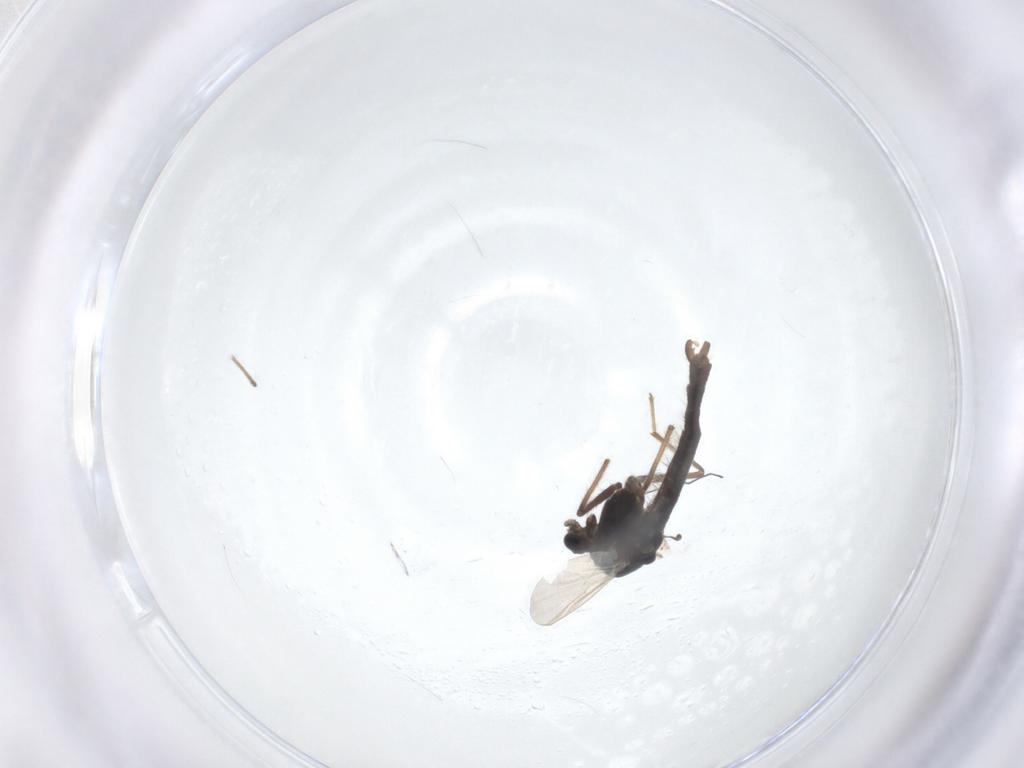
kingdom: Animalia
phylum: Arthropoda
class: Insecta
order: Diptera
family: Chironomidae
